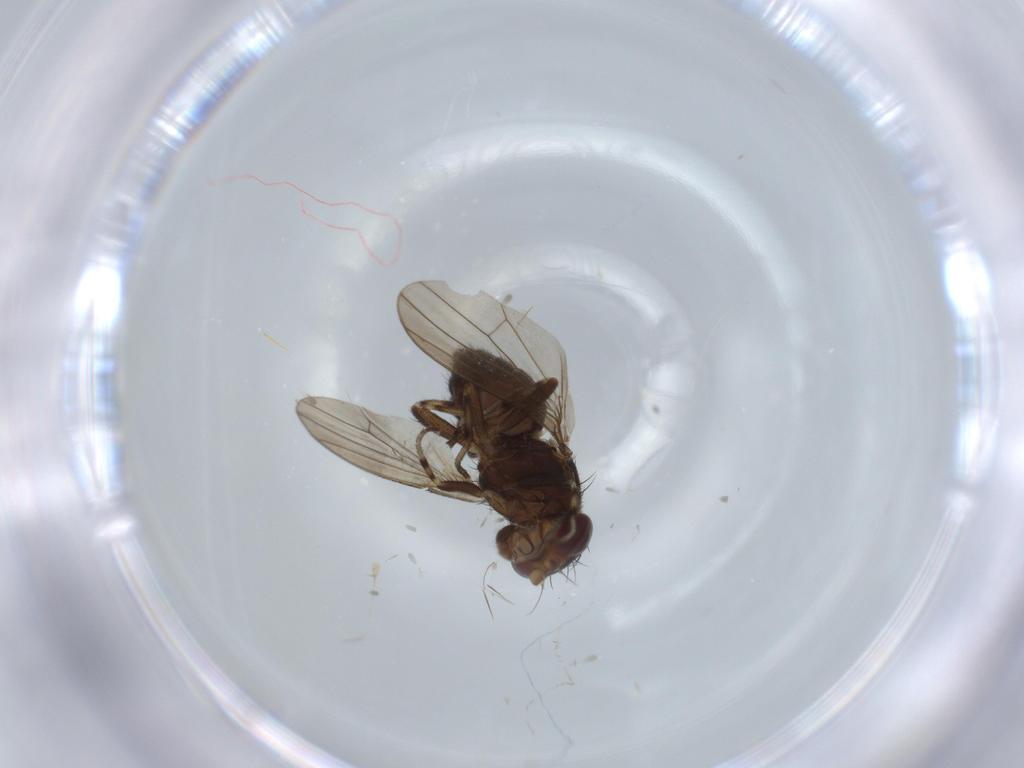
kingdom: Animalia
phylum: Arthropoda
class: Insecta
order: Diptera
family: Heleomyzidae
